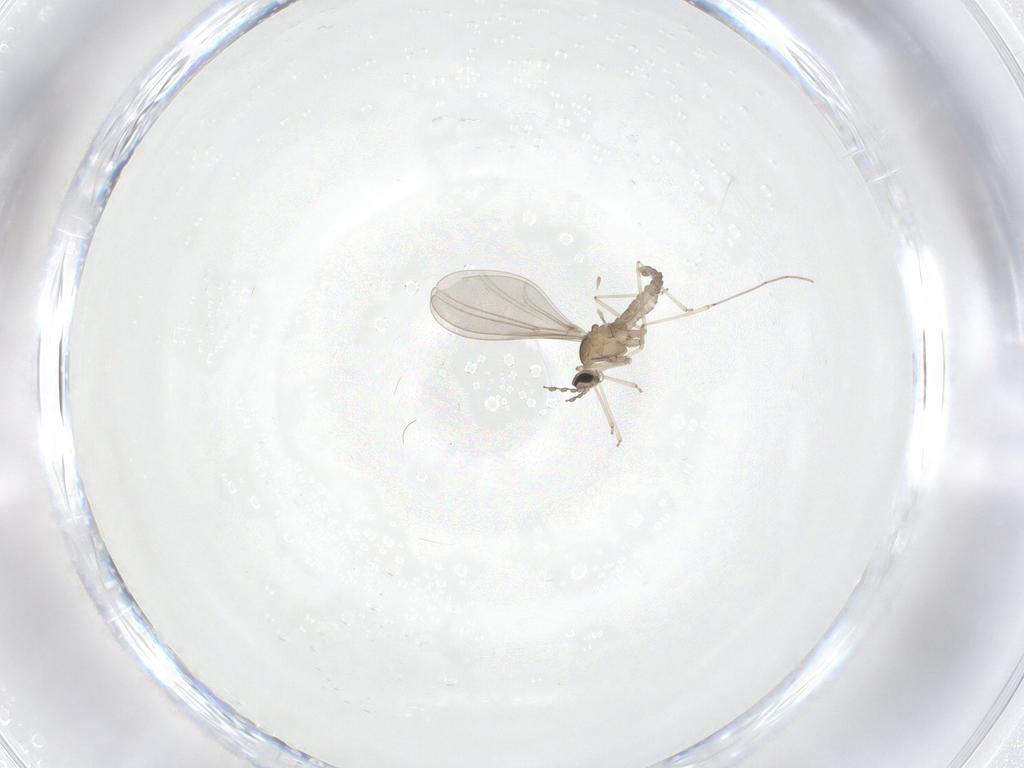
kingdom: Animalia
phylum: Arthropoda
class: Insecta
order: Diptera
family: Cecidomyiidae
